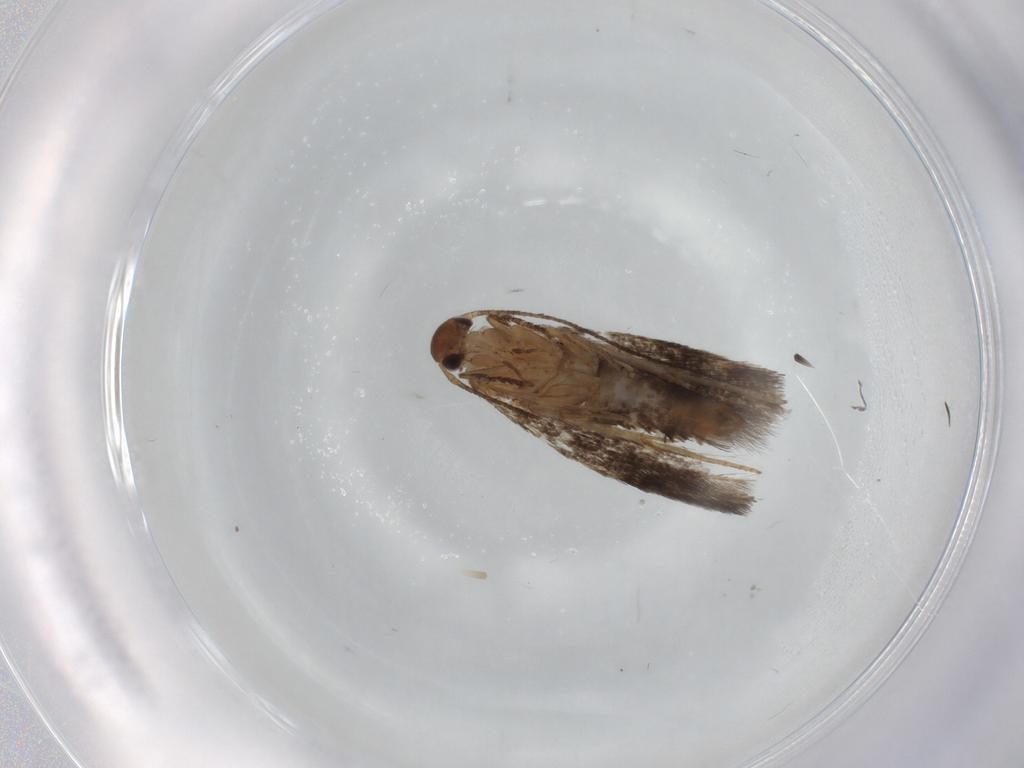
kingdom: Animalia
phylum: Arthropoda
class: Insecta
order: Lepidoptera
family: Gelechiidae
